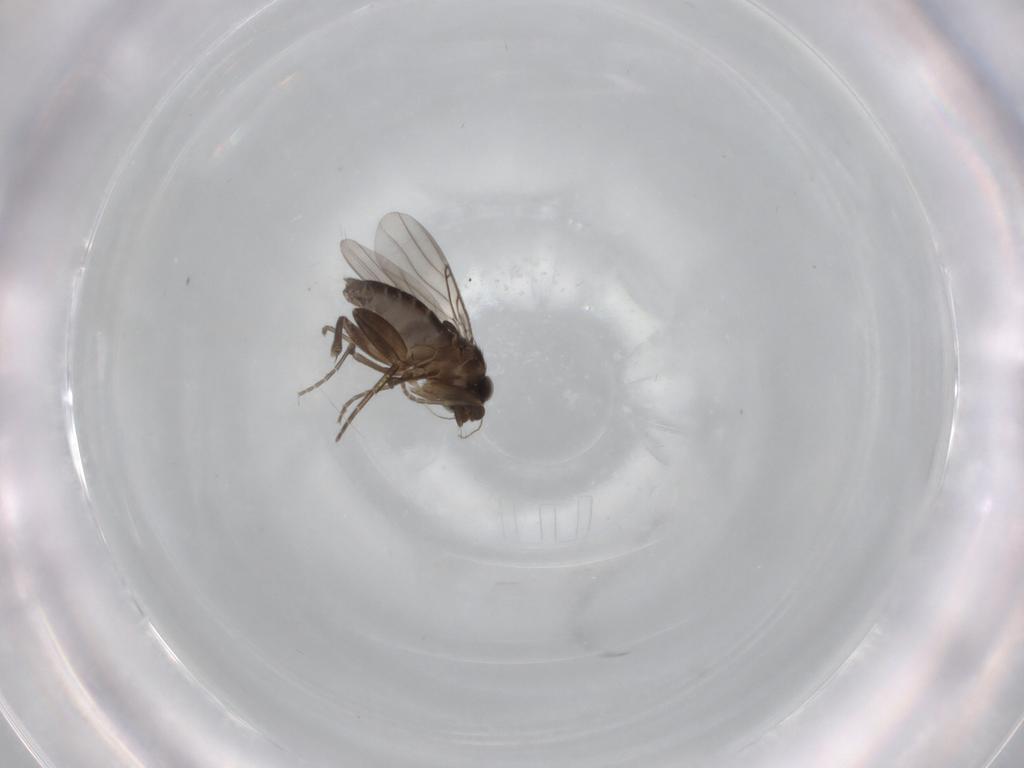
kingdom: Animalia
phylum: Arthropoda
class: Insecta
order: Diptera
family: Phoridae
